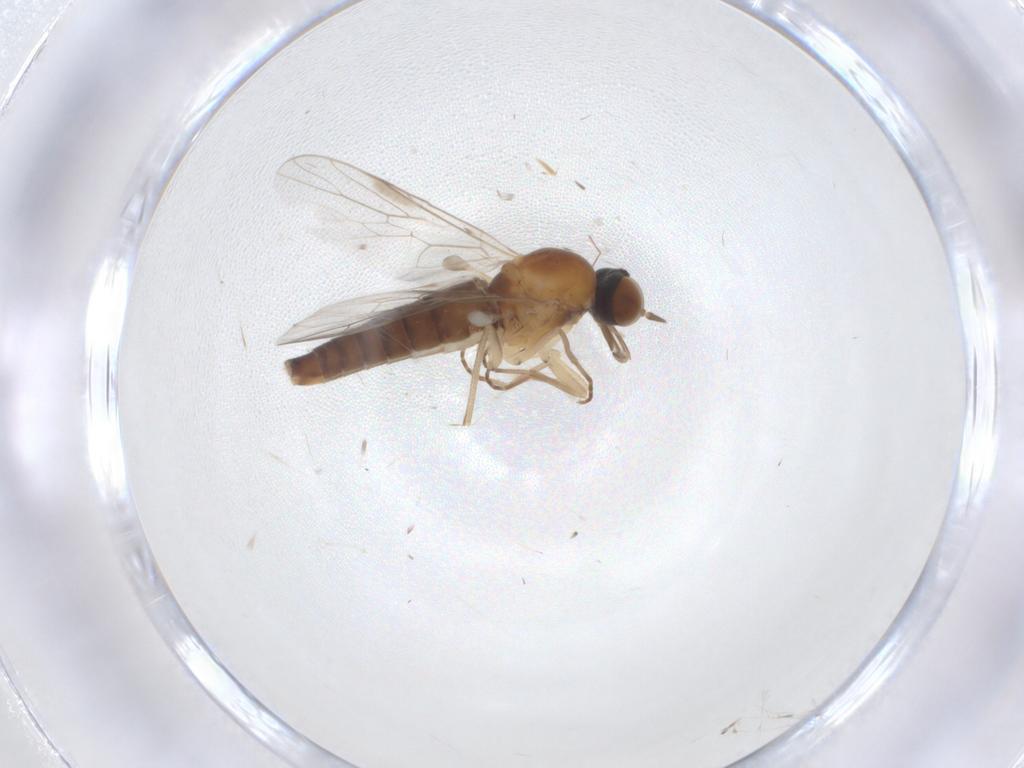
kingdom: Animalia
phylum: Arthropoda
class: Insecta
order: Diptera
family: Scenopinidae
